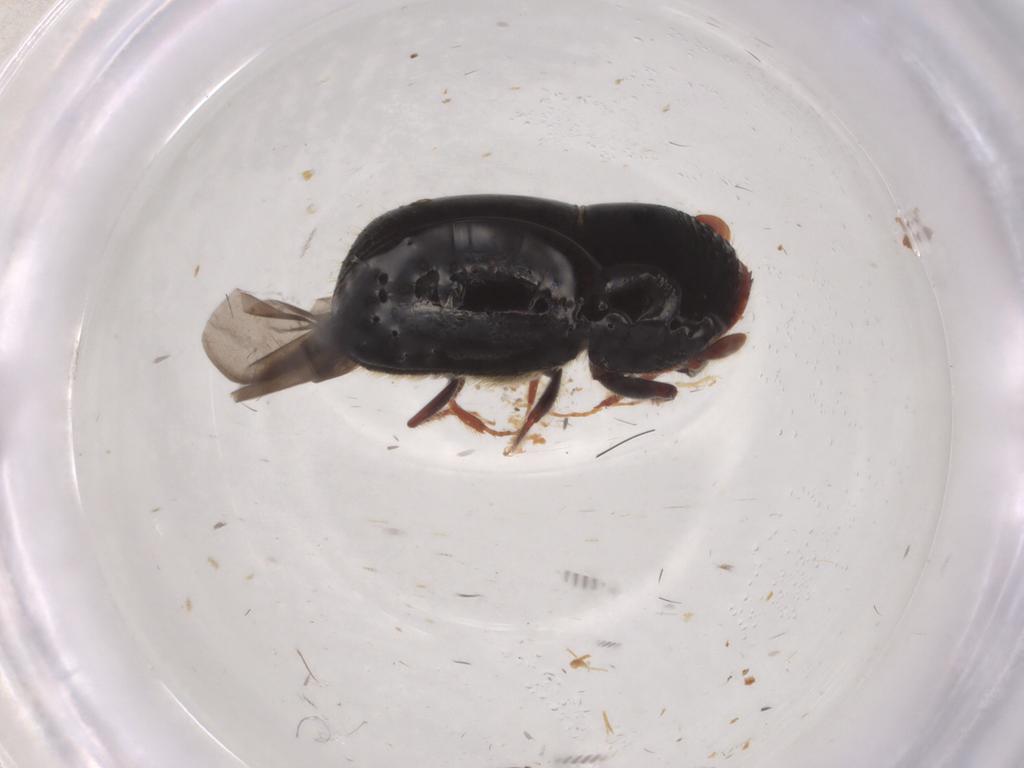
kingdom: Animalia
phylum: Arthropoda
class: Insecta
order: Coleoptera
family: Curculionidae
